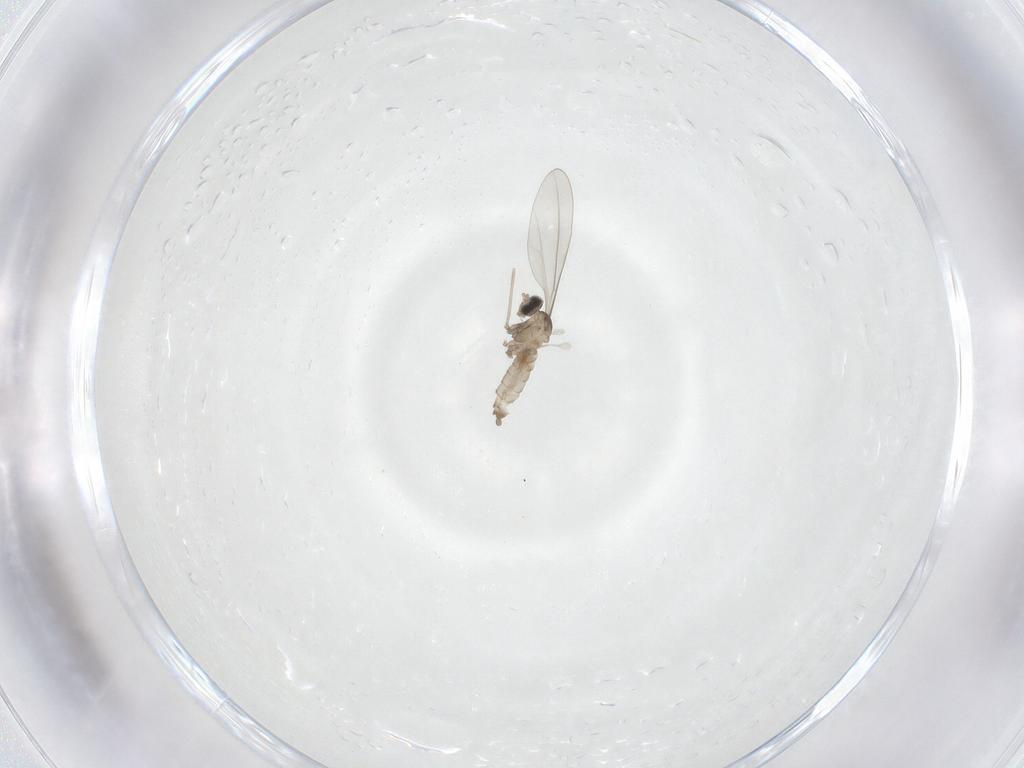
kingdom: Animalia
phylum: Arthropoda
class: Insecta
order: Diptera
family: Cecidomyiidae
